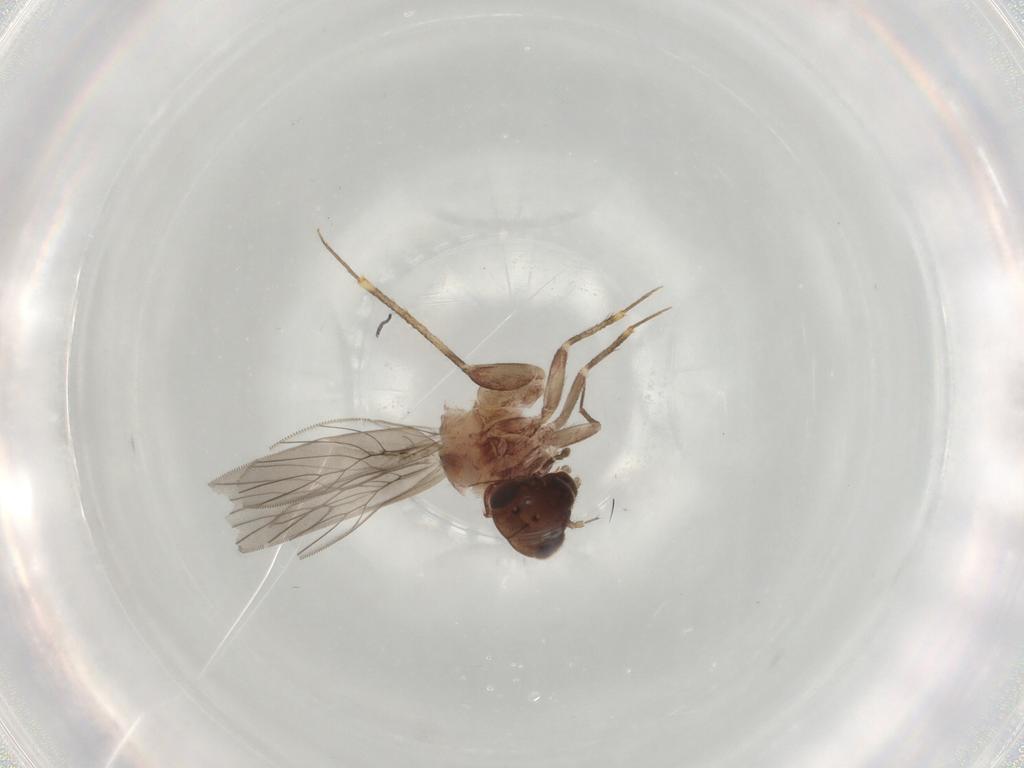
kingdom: Animalia
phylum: Arthropoda
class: Insecta
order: Psocodea
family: Lepidopsocidae
